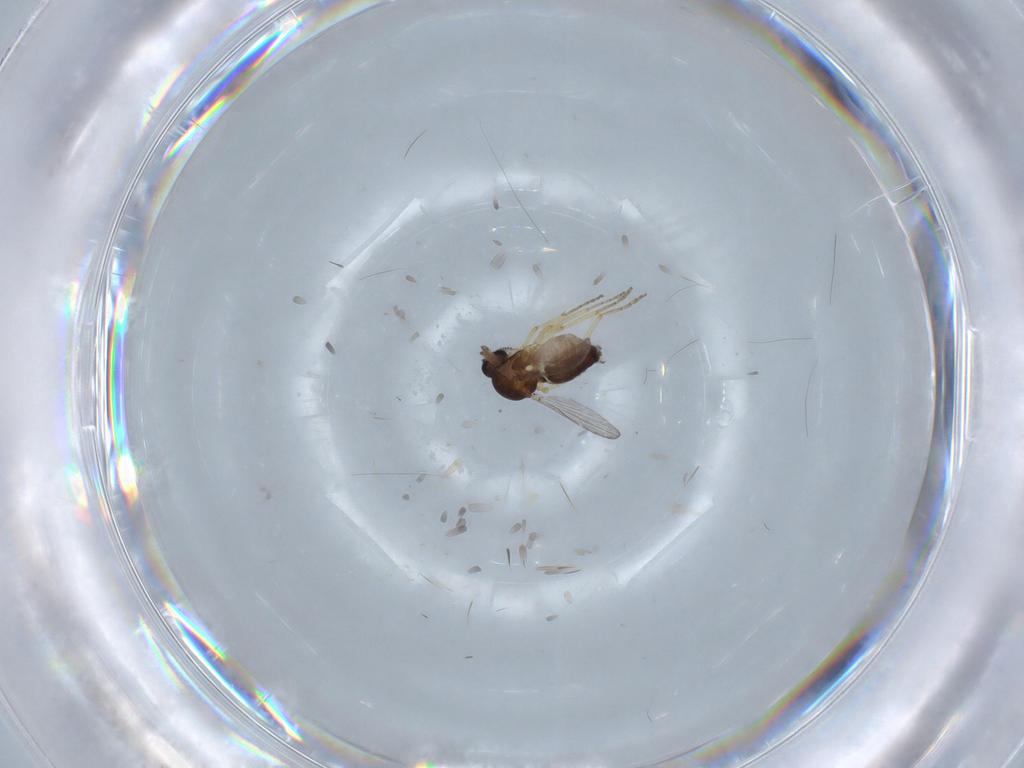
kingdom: Animalia
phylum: Arthropoda
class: Insecta
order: Diptera
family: Ceratopogonidae
